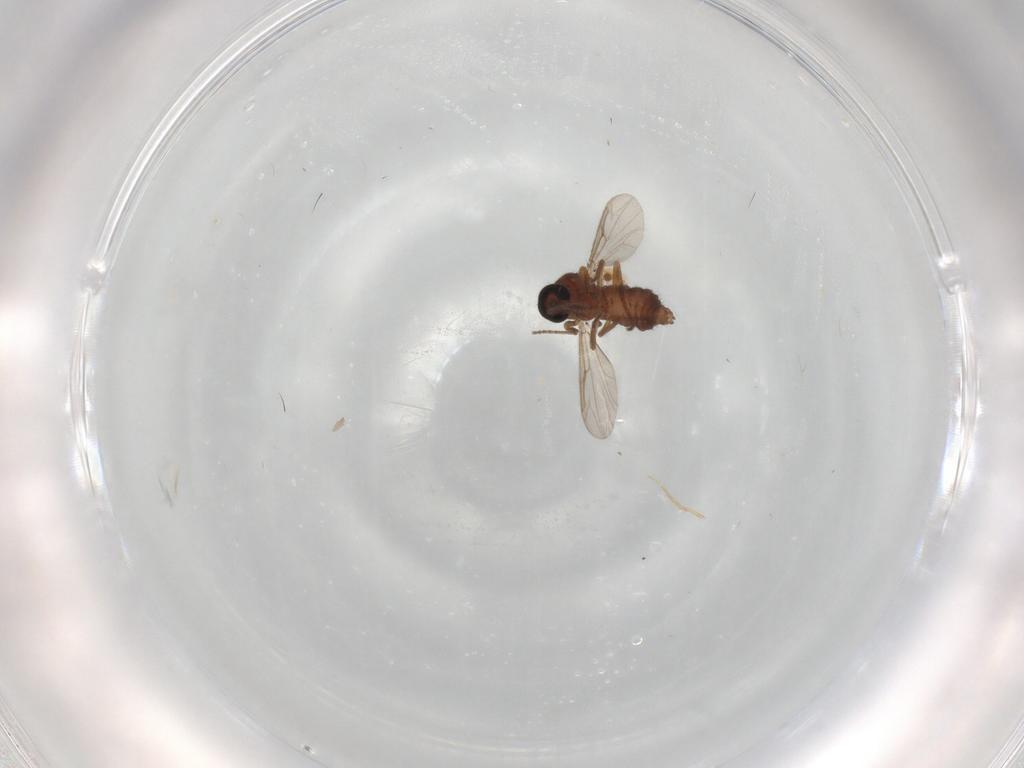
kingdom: Animalia
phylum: Arthropoda
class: Insecta
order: Diptera
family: Phoridae
